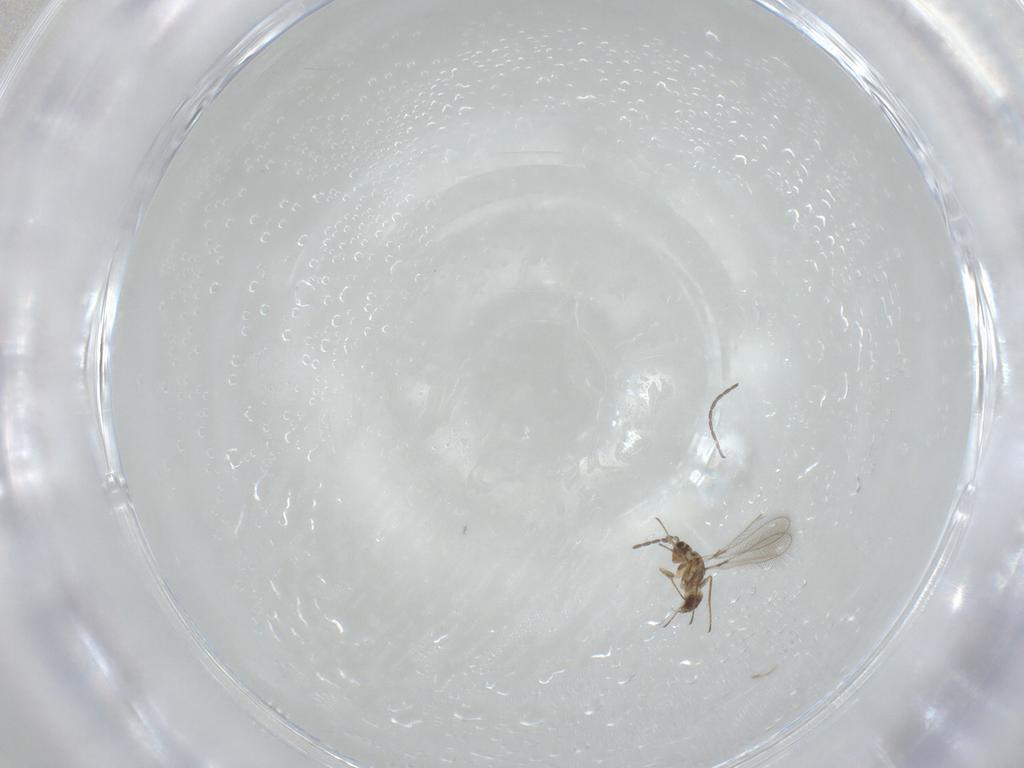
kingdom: Animalia
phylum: Arthropoda
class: Insecta
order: Hymenoptera
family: Mymaridae
